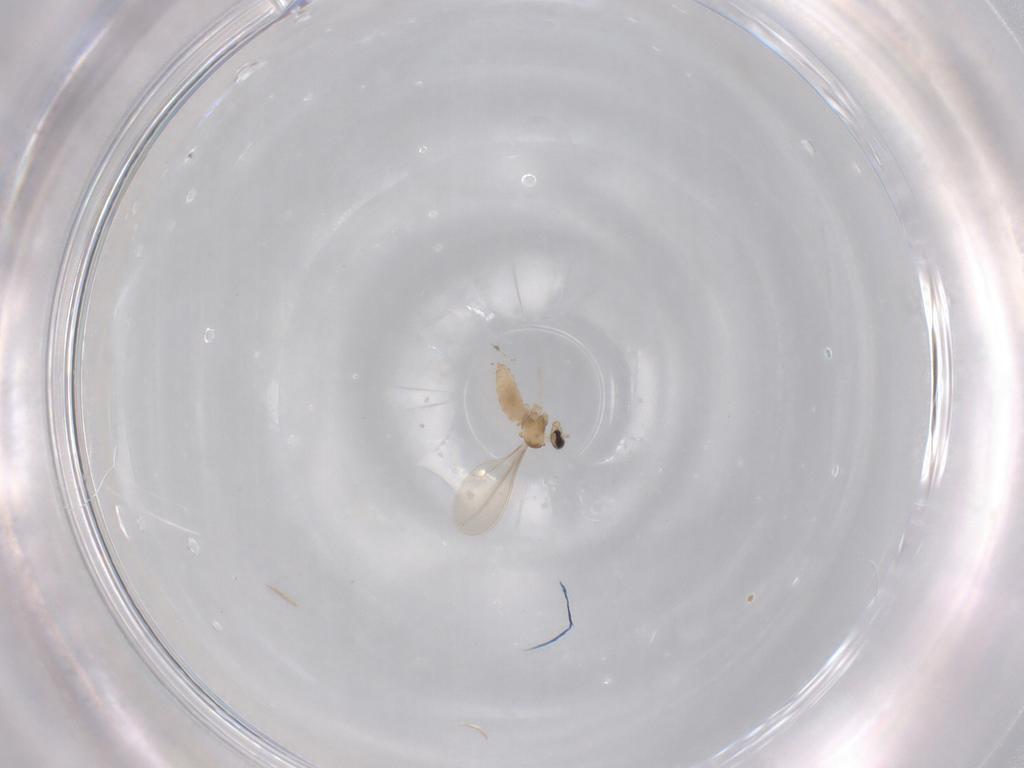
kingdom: Animalia
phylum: Arthropoda
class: Insecta
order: Diptera
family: Cecidomyiidae
